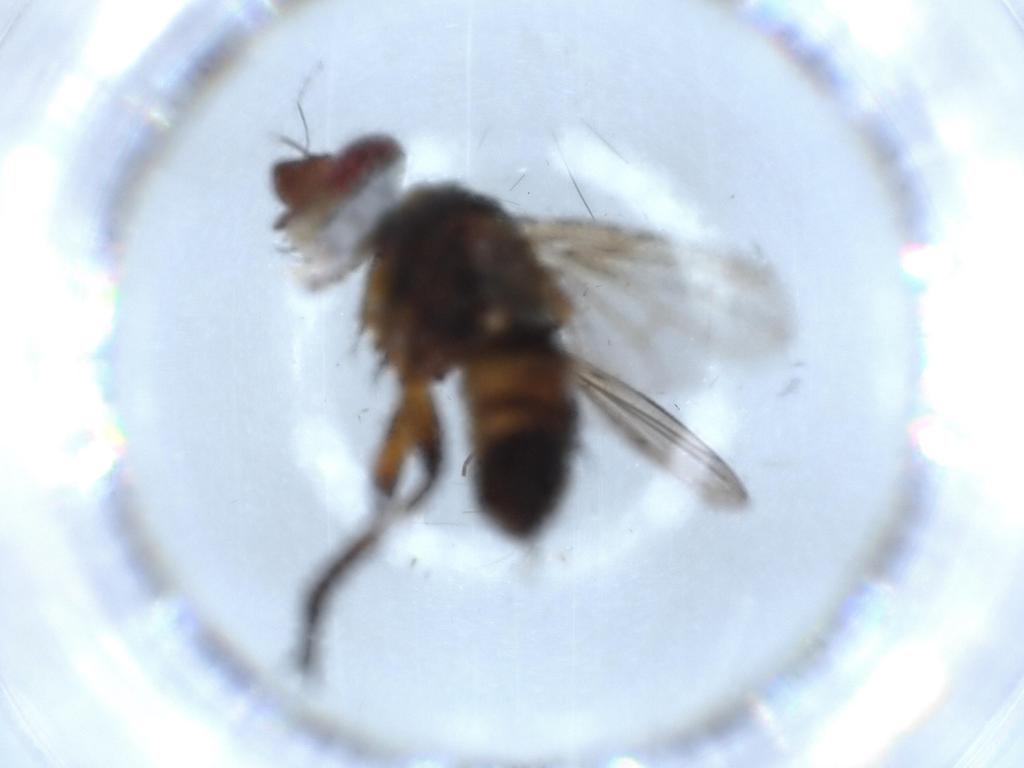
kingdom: Animalia
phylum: Arthropoda
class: Insecta
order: Diptera
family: Tachinidae
